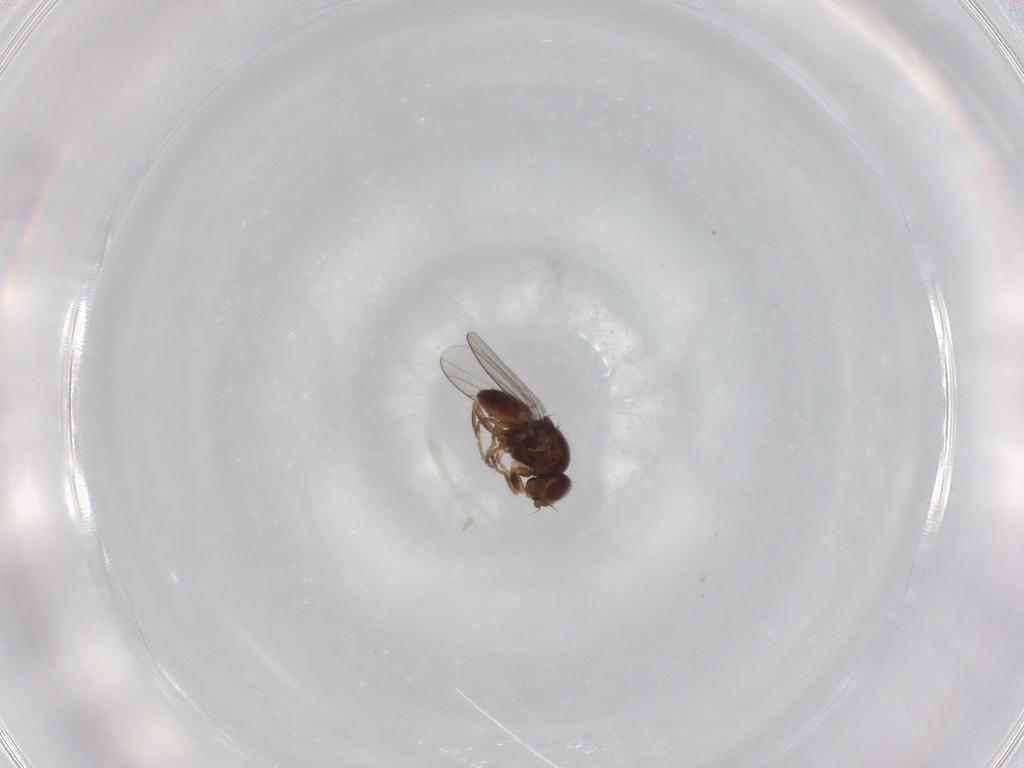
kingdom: Animalia
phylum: Arthropoda
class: Insecta
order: Diptera
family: Chloropidae
